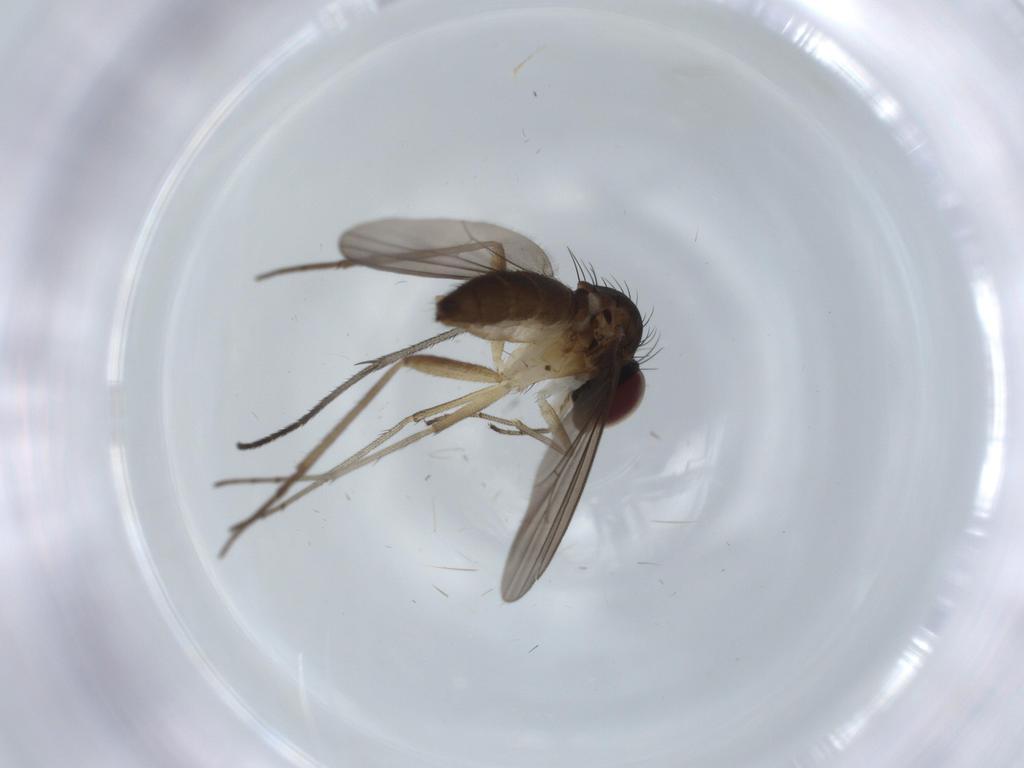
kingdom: Animalia
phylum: Arthropoda
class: Insecta
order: Diptera
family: Dolichopodidae
